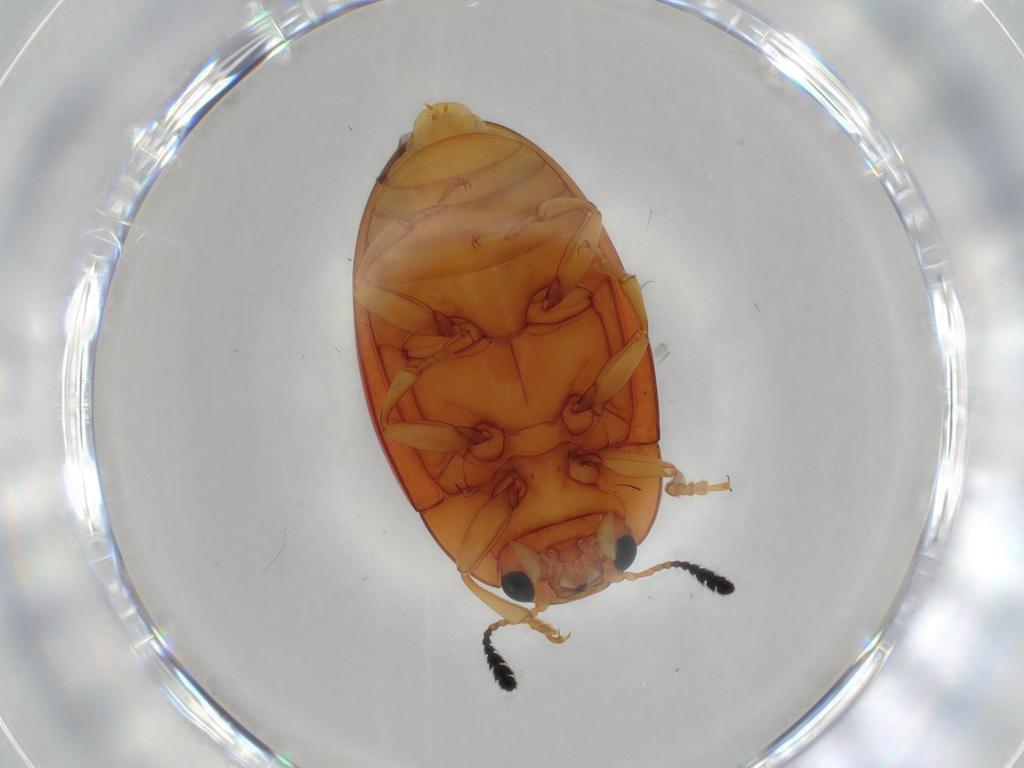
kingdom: Animalia
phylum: Arthropoda
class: Insecta
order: Coleoptera
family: Erotylidae
